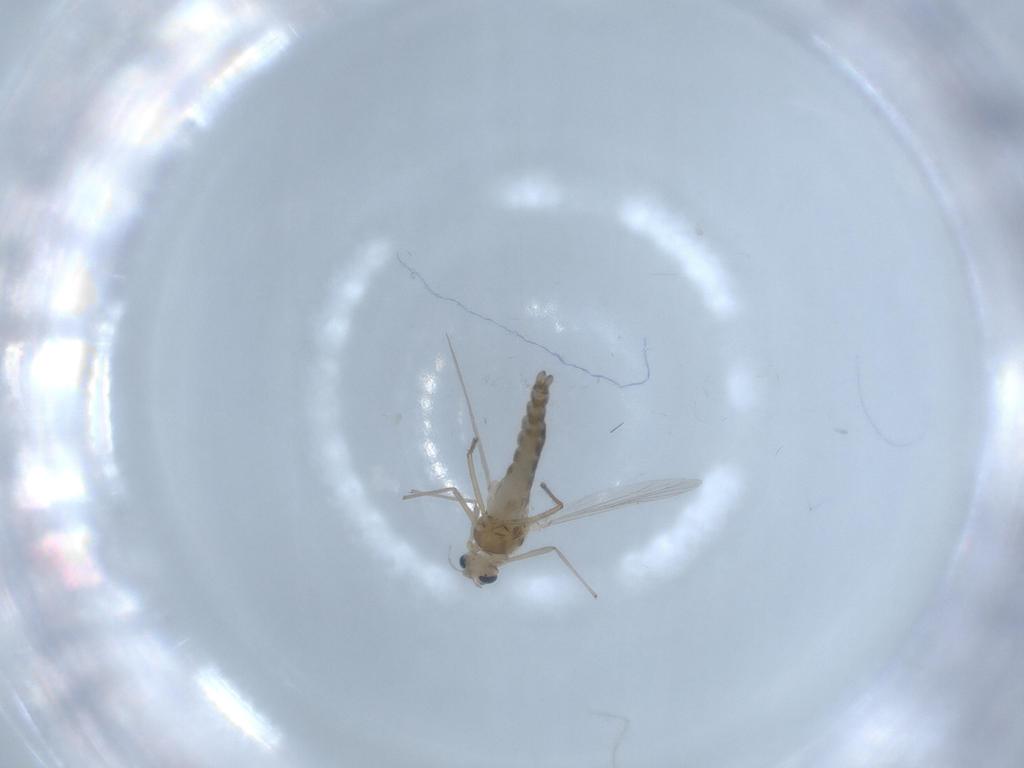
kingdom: Animalia
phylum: Arthropoda
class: Insecta
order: Diptera
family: Chironomidae
